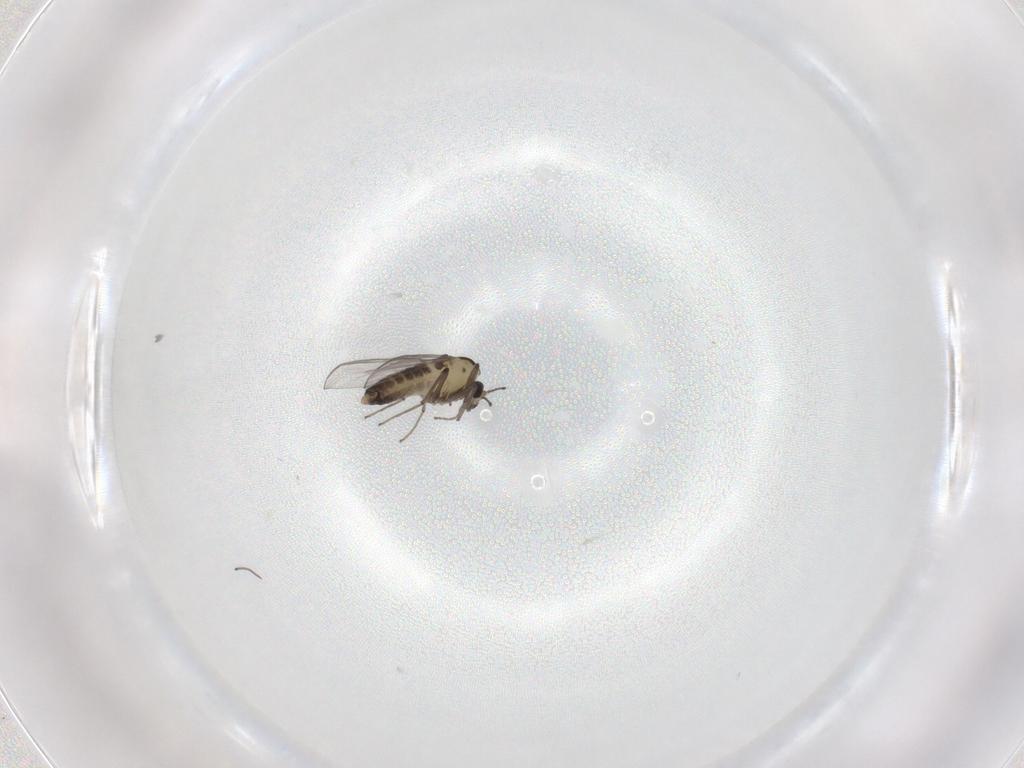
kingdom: Animalia
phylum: Arthropoda
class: Insecta
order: Diptera
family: Chironomidae
